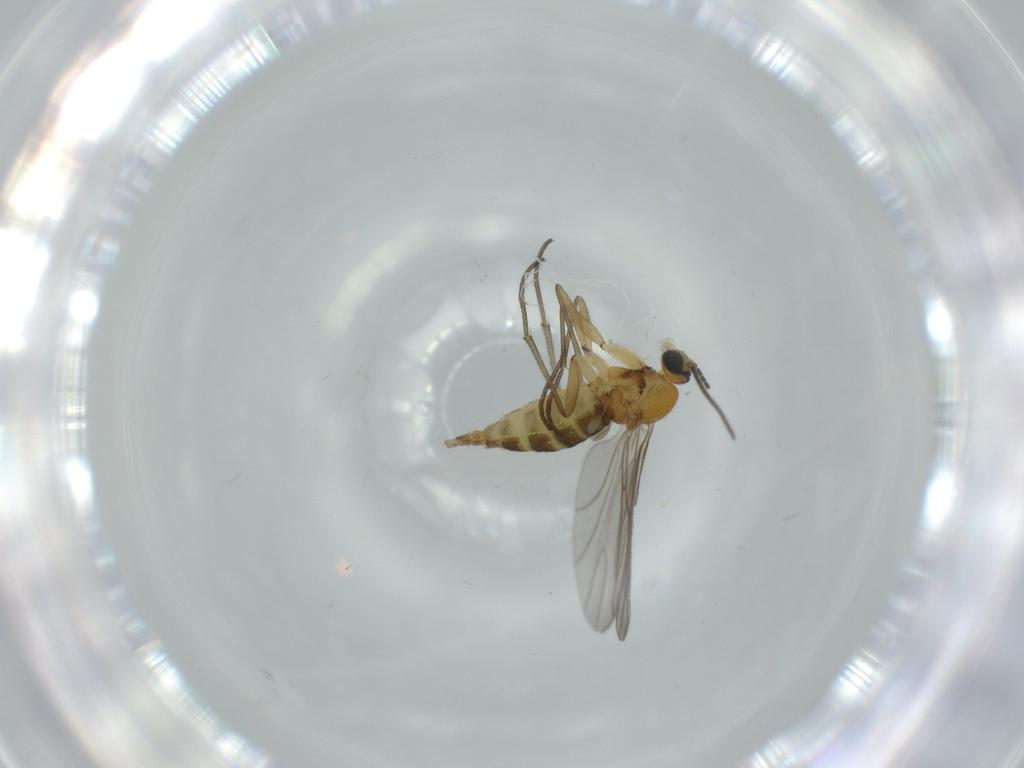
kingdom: Animalia
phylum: Arthropoda
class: Insecta
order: Diptera
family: Sciaridae
